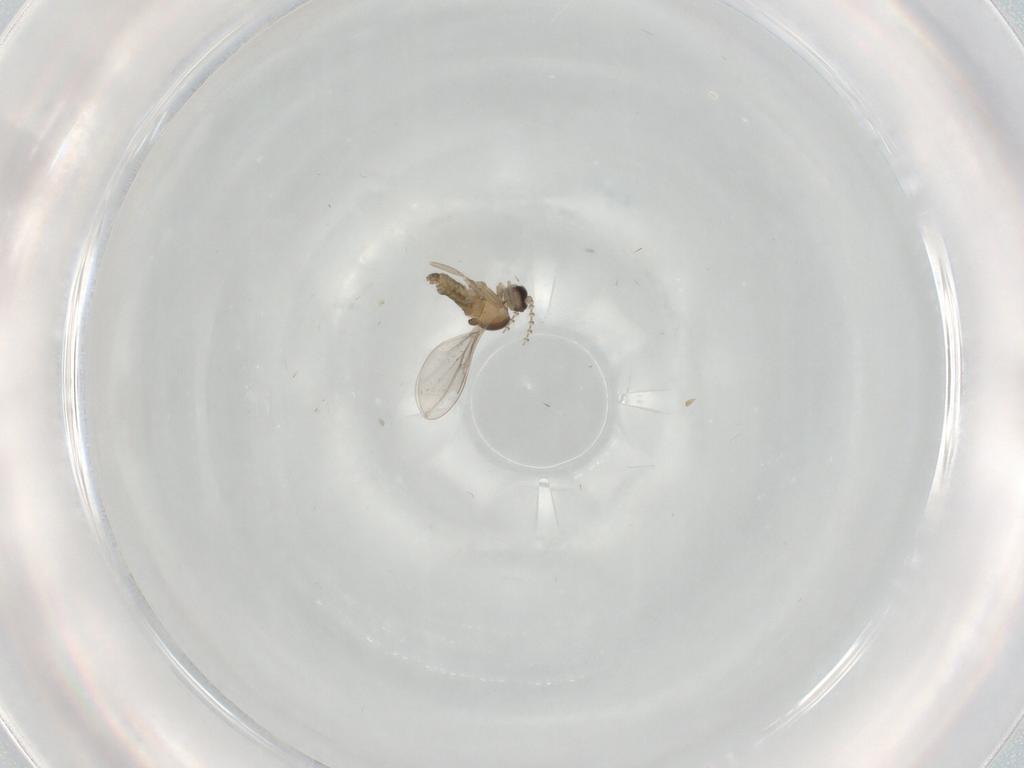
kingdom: Animalia
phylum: Arthropoda
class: Insecta
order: Diptera
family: Cecidomyiidae
